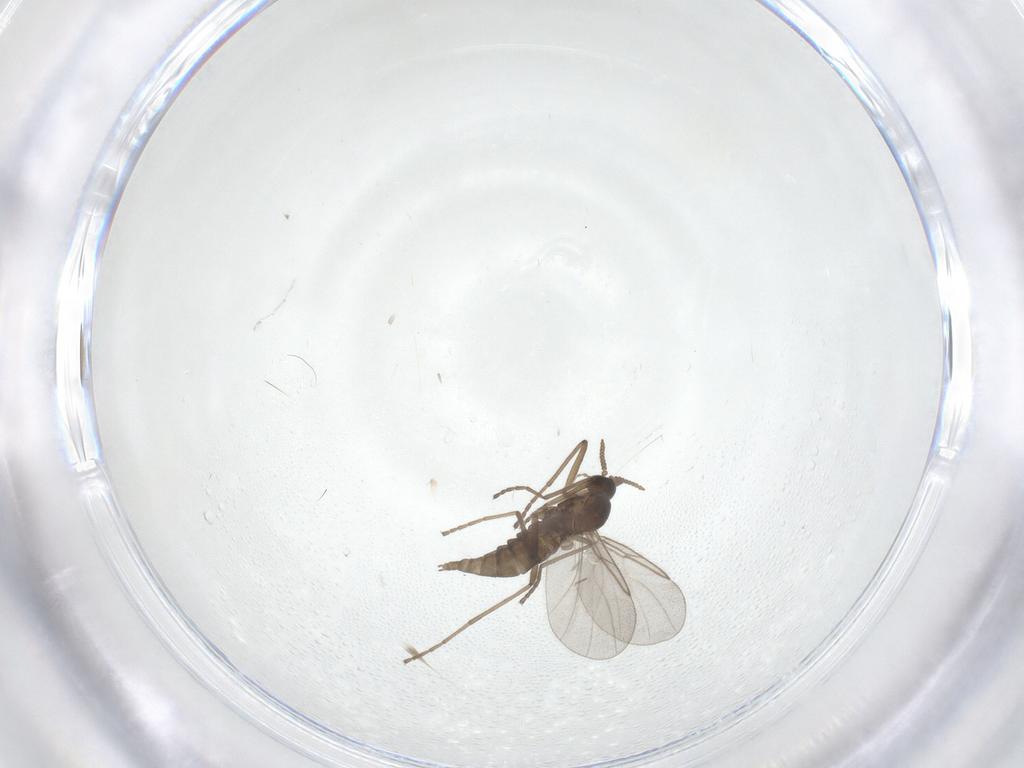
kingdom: Animalia
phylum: Arthropoda
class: Insecta
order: Diptera
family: Cecidomyiidae
